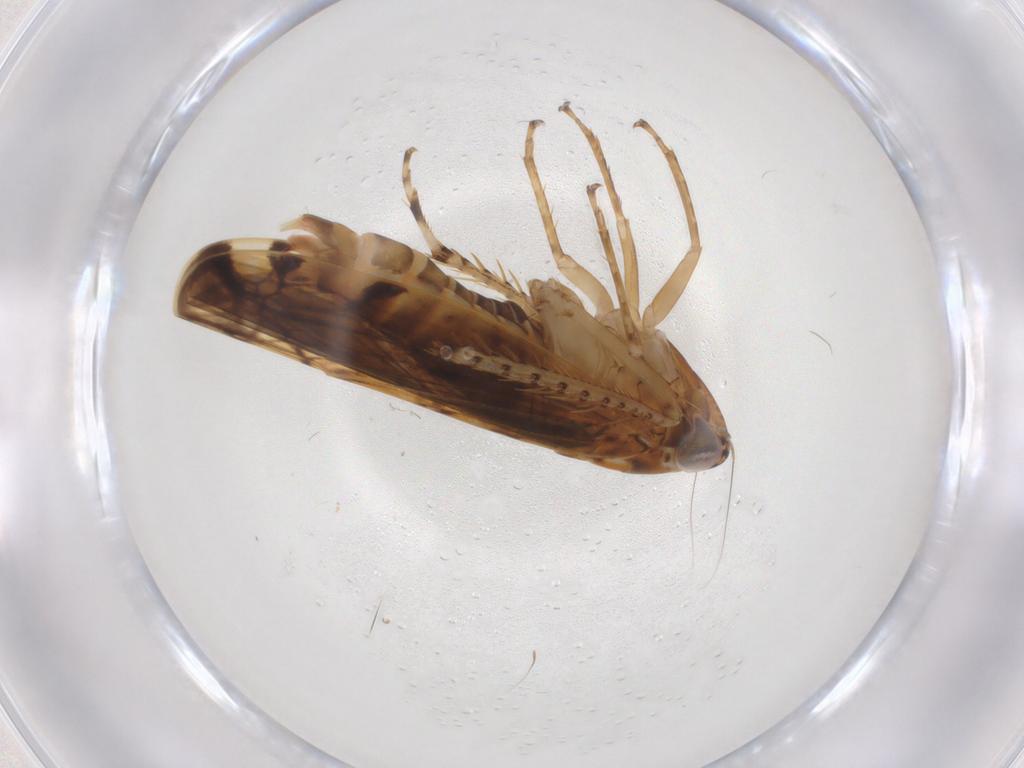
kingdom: Animalia
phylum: Arthropoda
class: Insecta
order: Hemiptera
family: Cicadellidae
